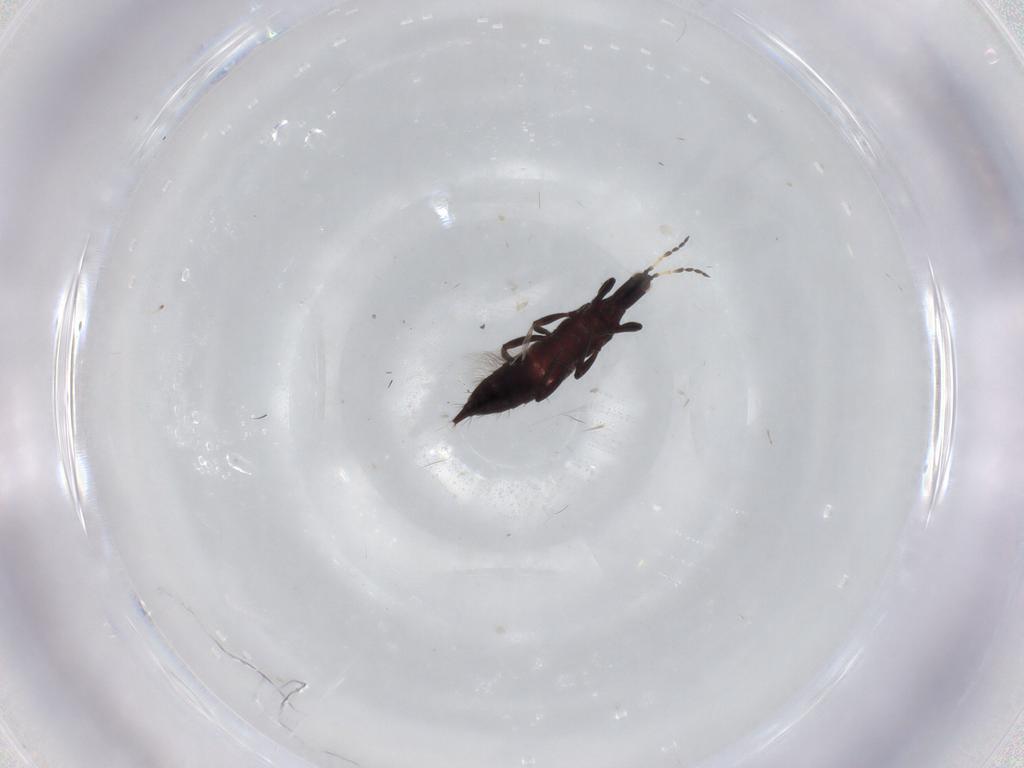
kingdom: Animalia
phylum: Arthropoda
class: Insecta
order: Thysanoptera
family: Phlaeothripidae
